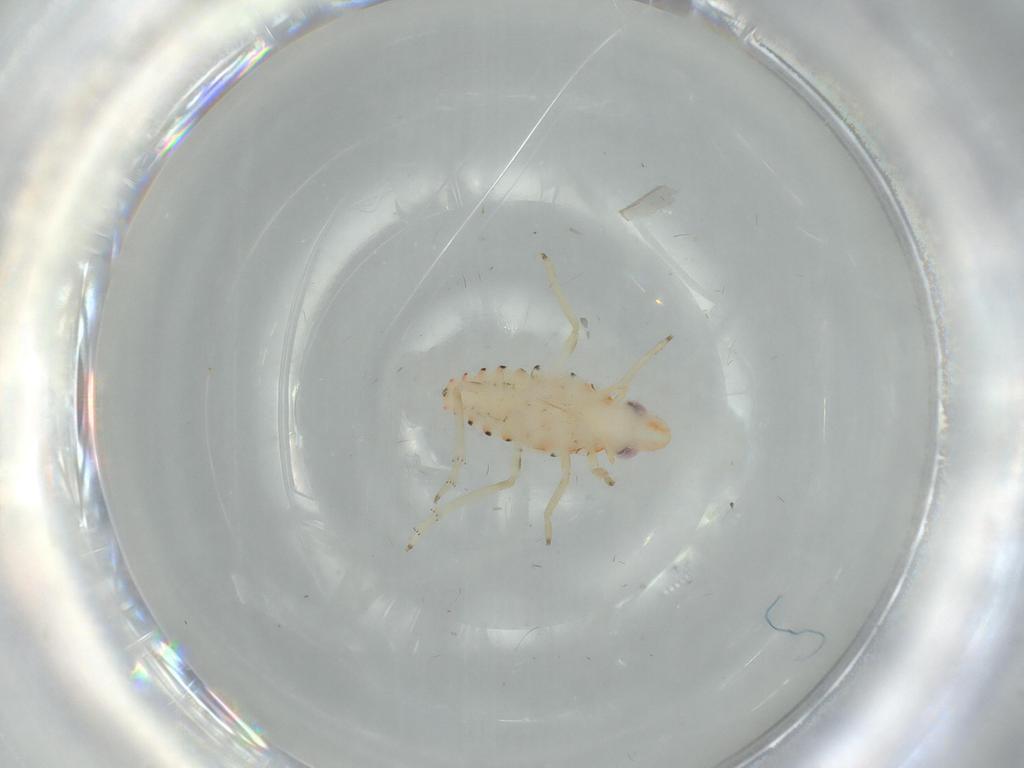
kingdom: Animalia
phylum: Arthropoda
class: Insecta
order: Hemiptera
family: Tropiduchidae
